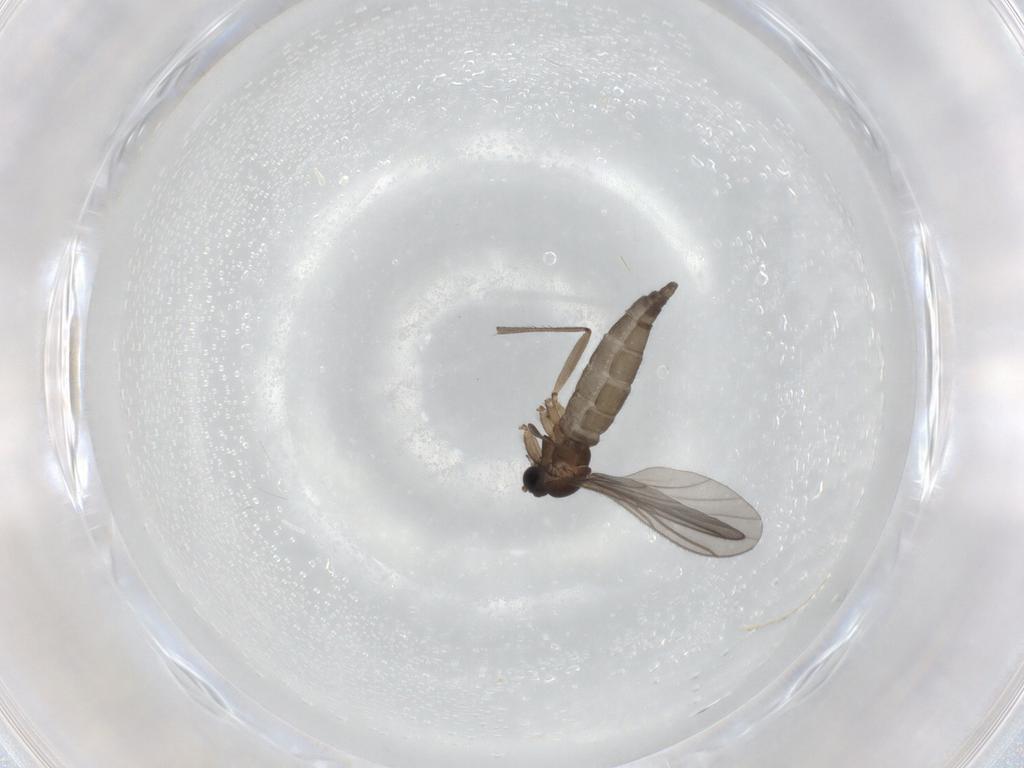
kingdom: Animalia
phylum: Arthropoda
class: Insecta
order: Diptera
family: Sciaridae
